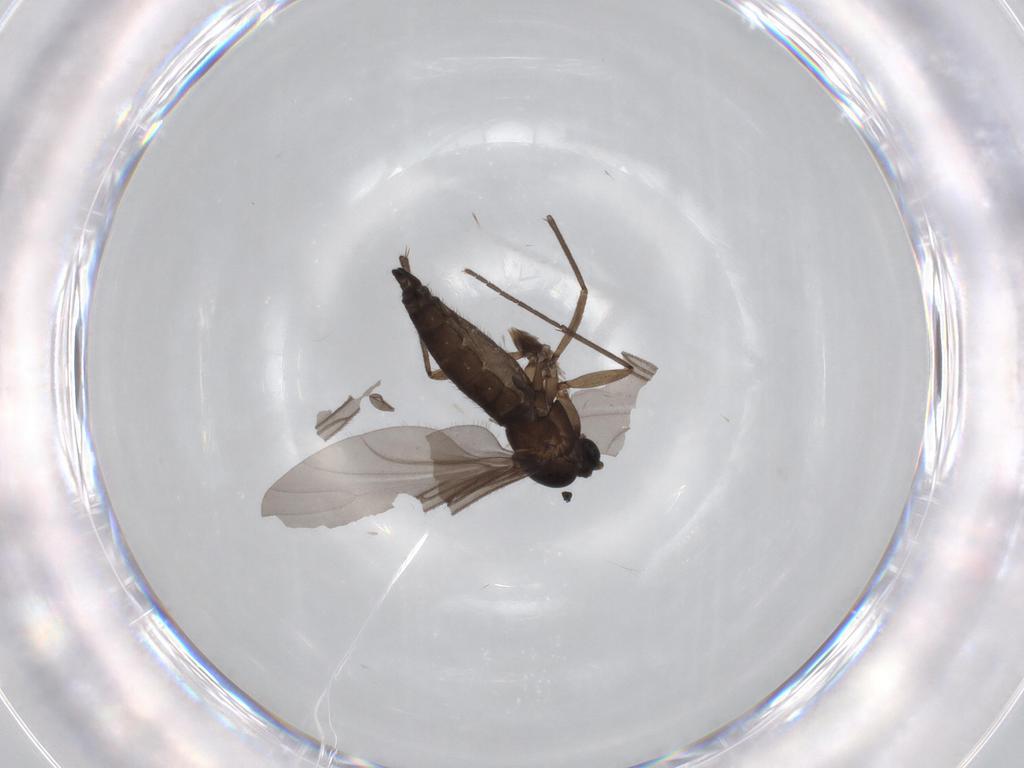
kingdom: Animalia
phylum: Arthropoda
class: Insecta
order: Diptera
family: Sciaridae
